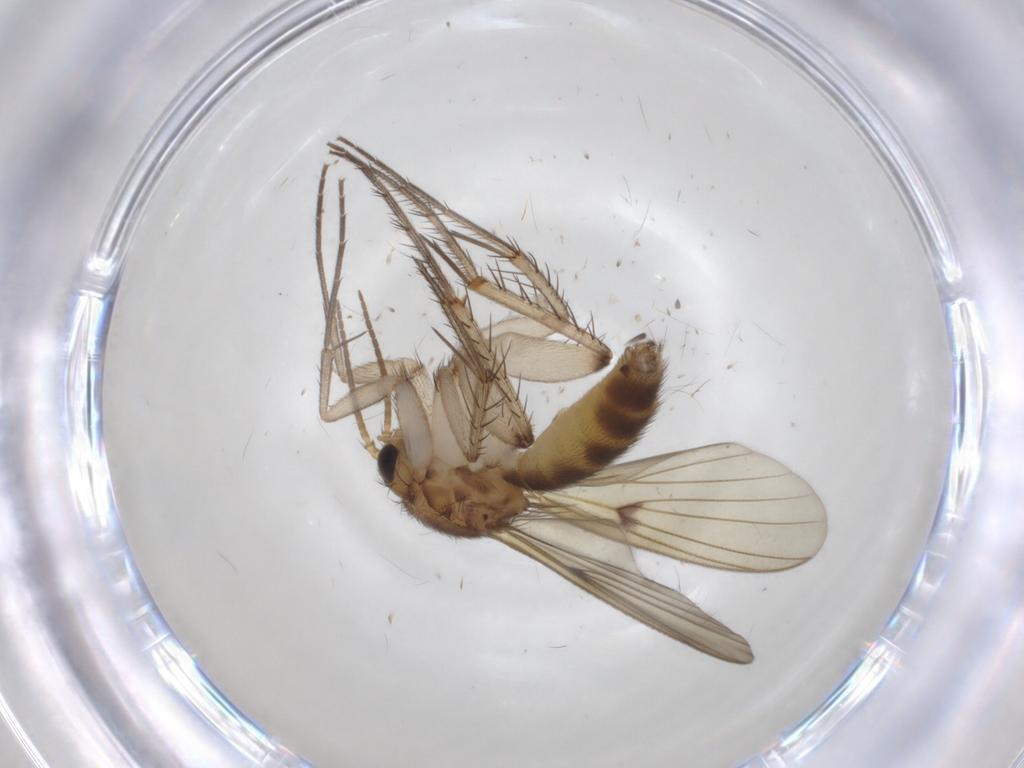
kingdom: Animalia
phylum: Arthropoda
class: Insecta
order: Diptera
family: Mycetophilidae
